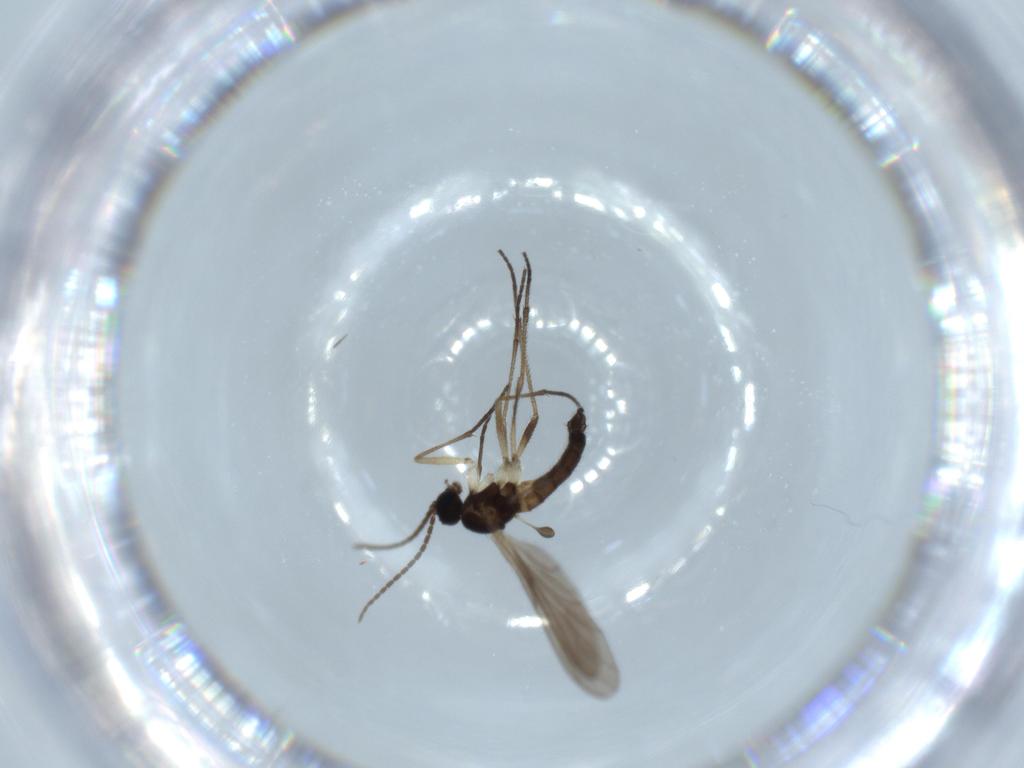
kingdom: Animalia
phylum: Arthropoda
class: Insecta
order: Diptera
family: Sciaridae
